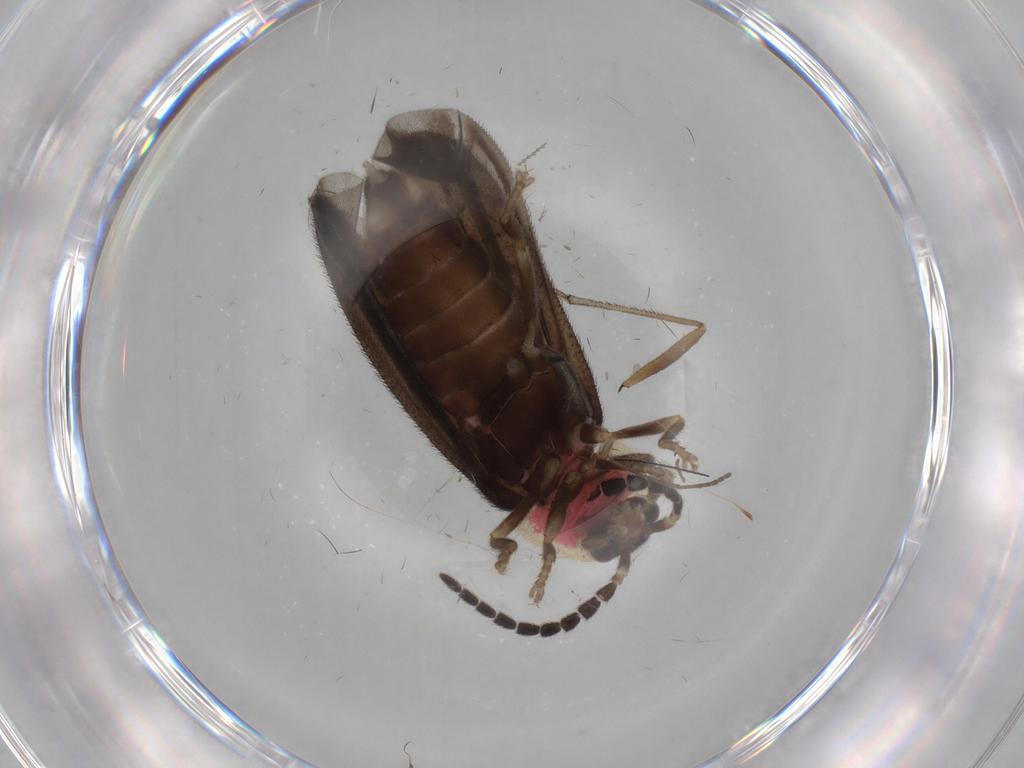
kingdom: Animalia
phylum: Arthropoda
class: Insecta
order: Coleoptera
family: Lampyridae
